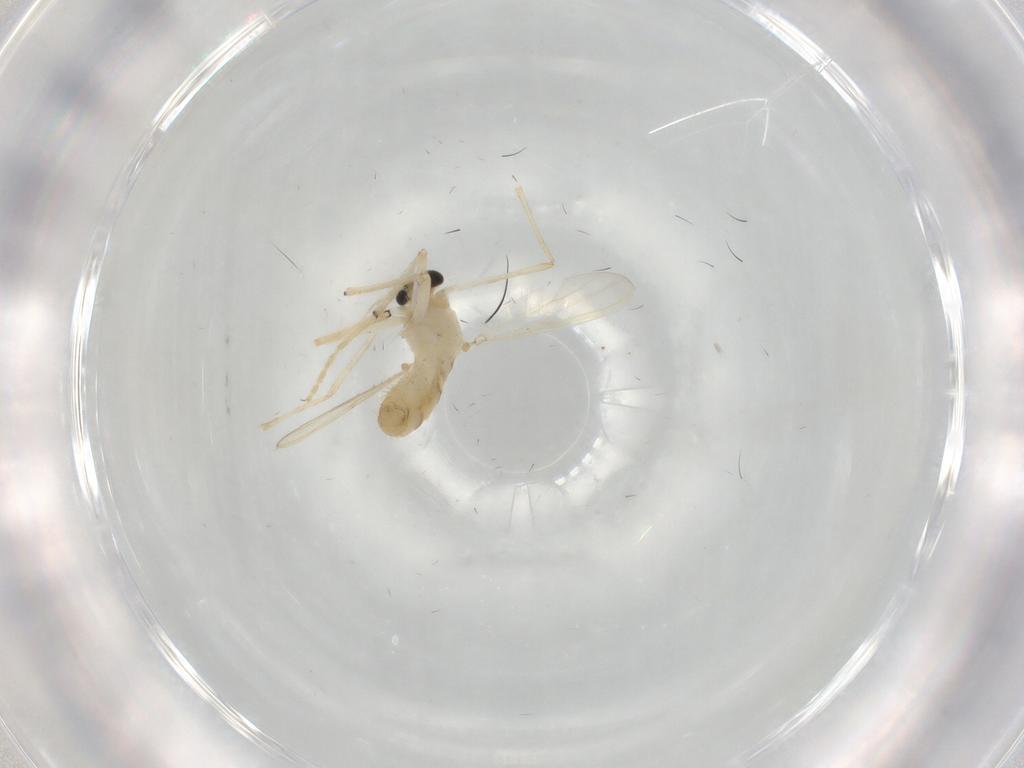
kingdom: Animalia
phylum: Arthropoda
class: Insecta
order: Diptera
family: Chironomidae
